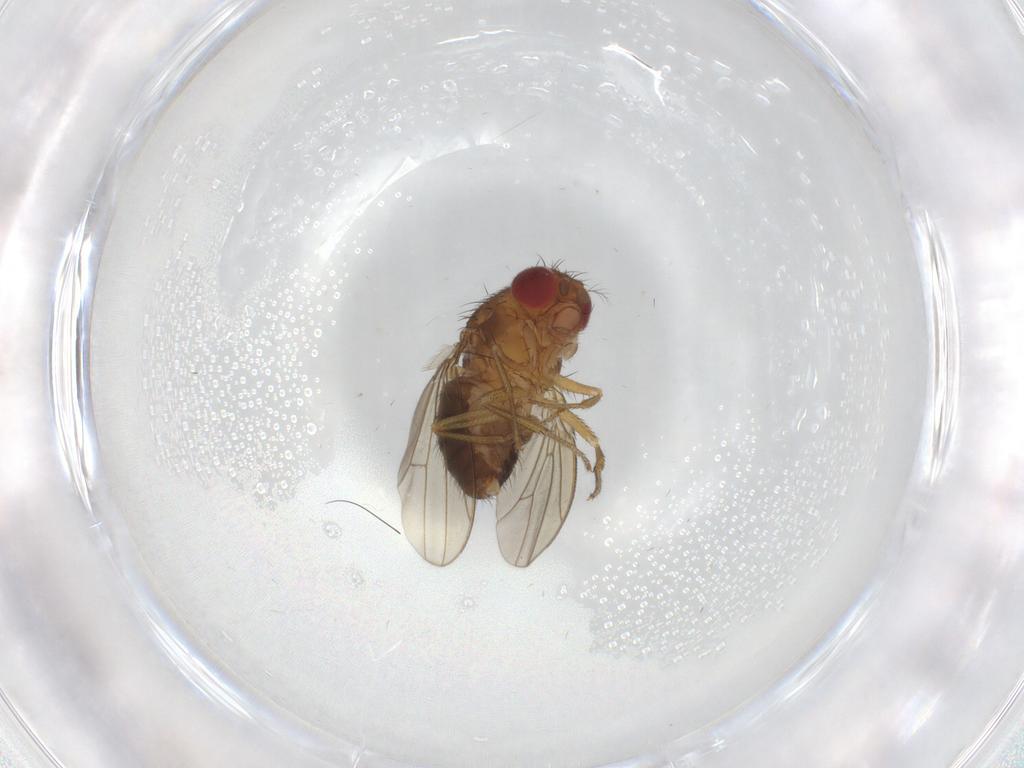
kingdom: Animalia
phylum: Arthropoda
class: Insecta
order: Diptera
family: Drosophilidae
